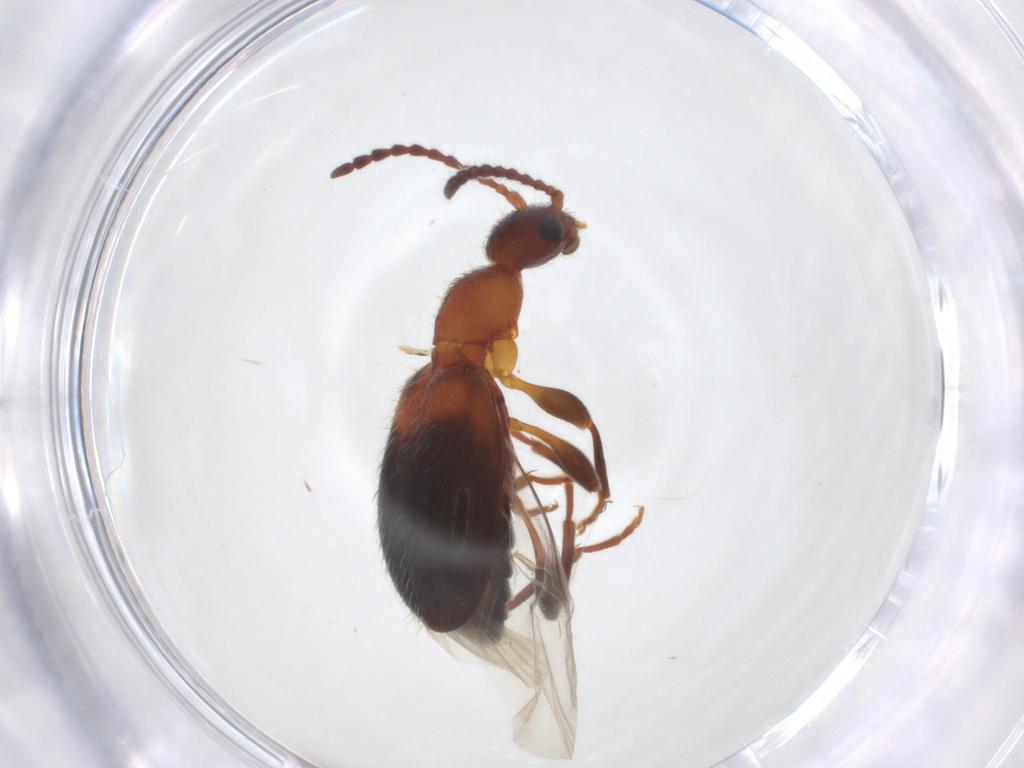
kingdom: Animalia
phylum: Arthropoda
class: Insecta
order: Coleoptera
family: Anthicidae
